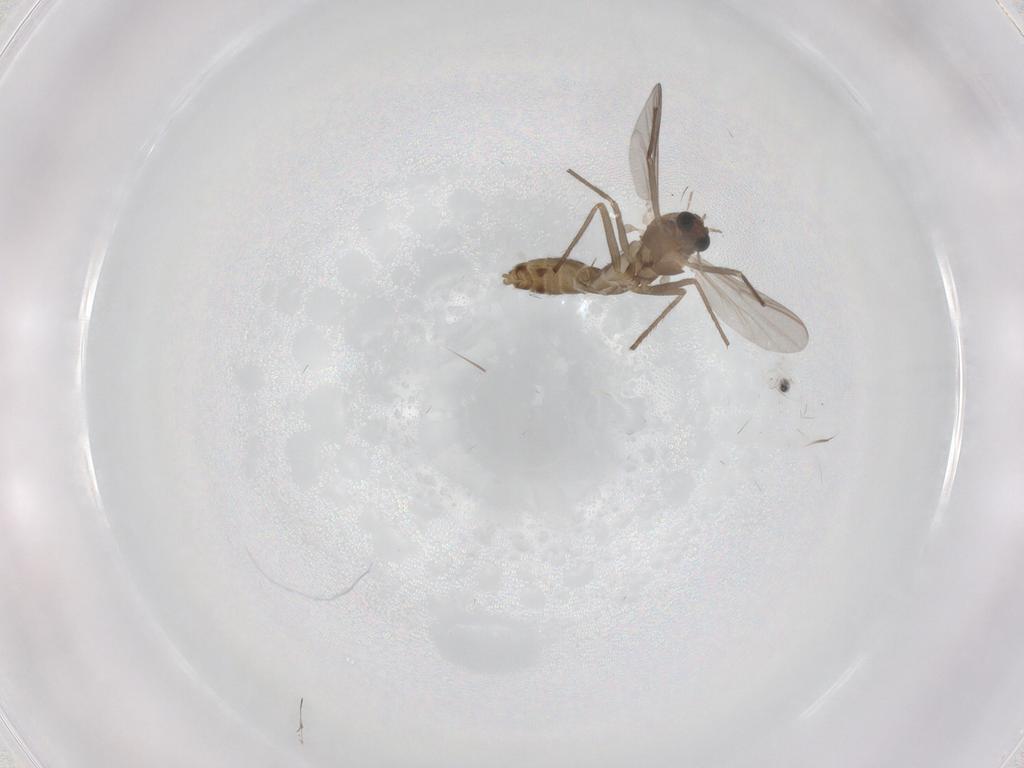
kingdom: Animalia
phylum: Arthropoda
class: Insecta
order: Diptera
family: Sciaridae
